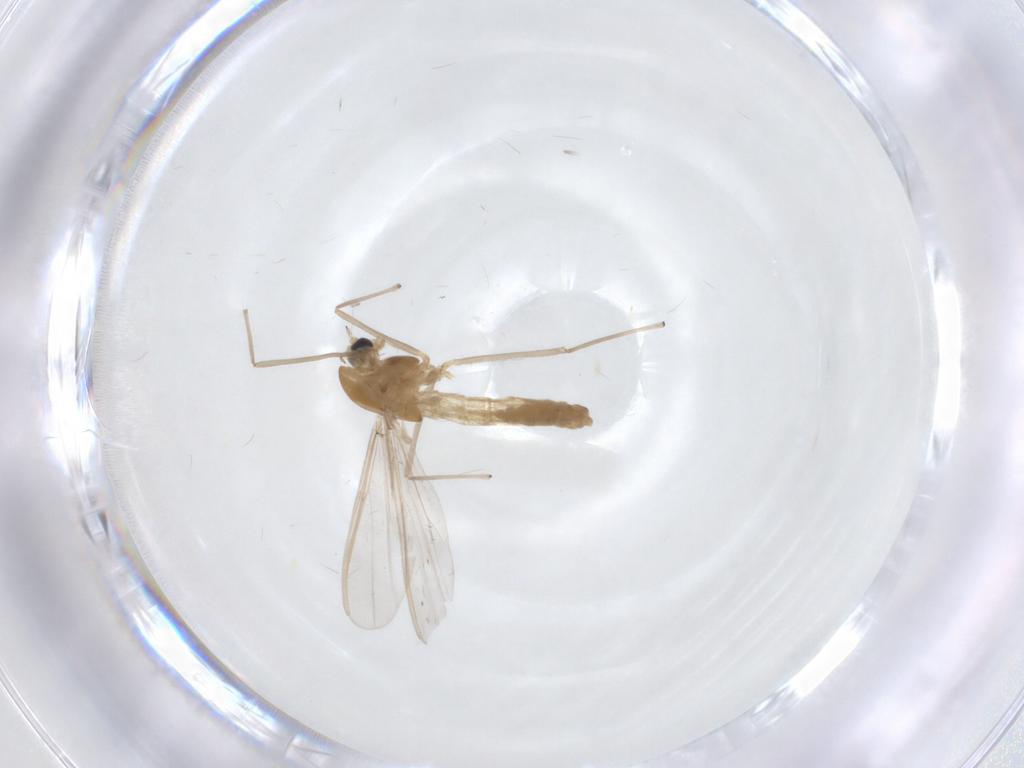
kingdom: Animalia
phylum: Arthropoda
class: Insecta
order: Diptera
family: Chironomidae
